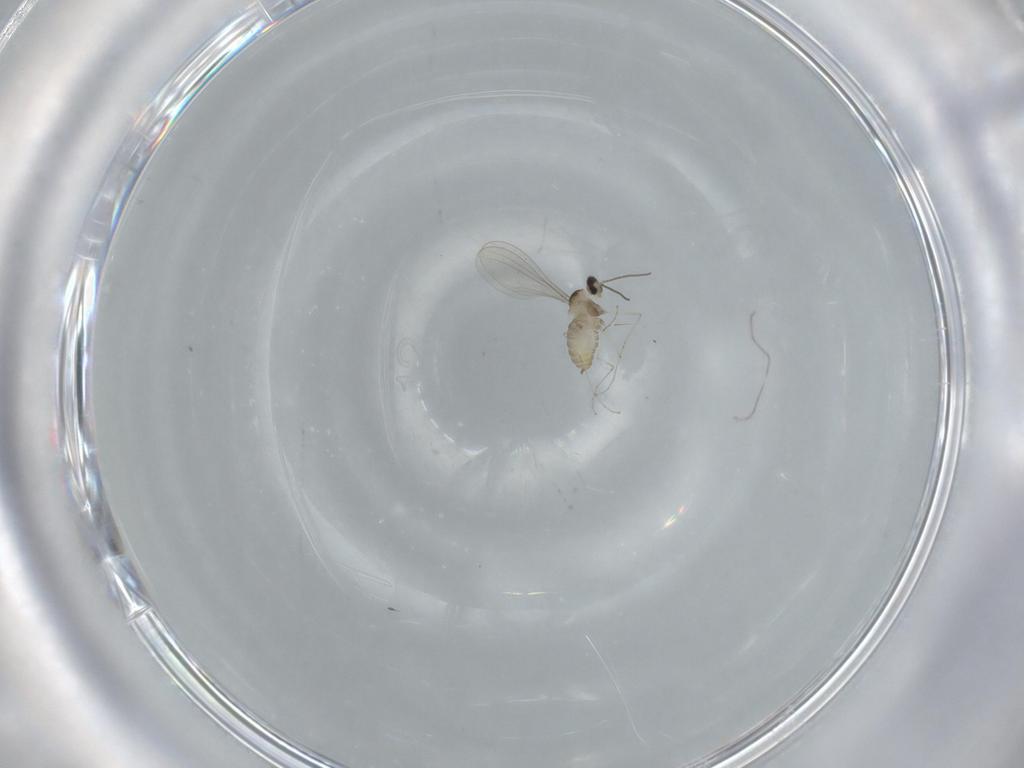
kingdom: Animalia
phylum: Arthropoda
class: Insecta
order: Diptera
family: Cecidomyiidae
